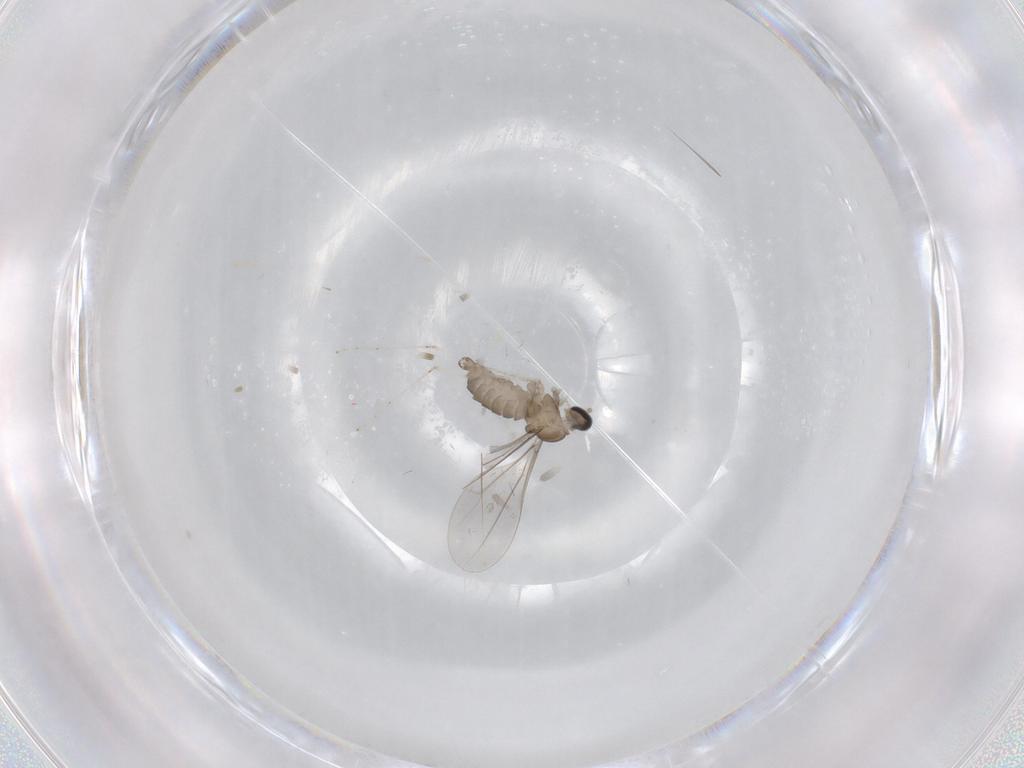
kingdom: Animalia
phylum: Arthropoda
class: Insecta
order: Diptera
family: Cecidomyiidae
